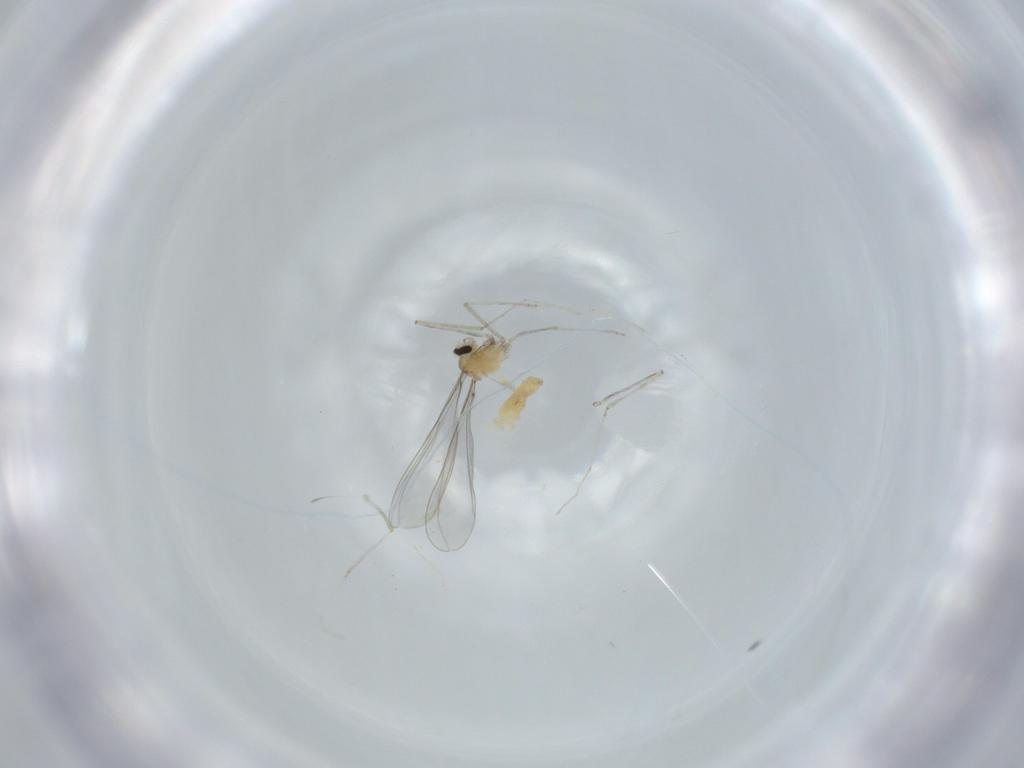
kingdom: Animalia
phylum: Arthropoda
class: Insecta
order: Diptera
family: Cecidomyiidae
